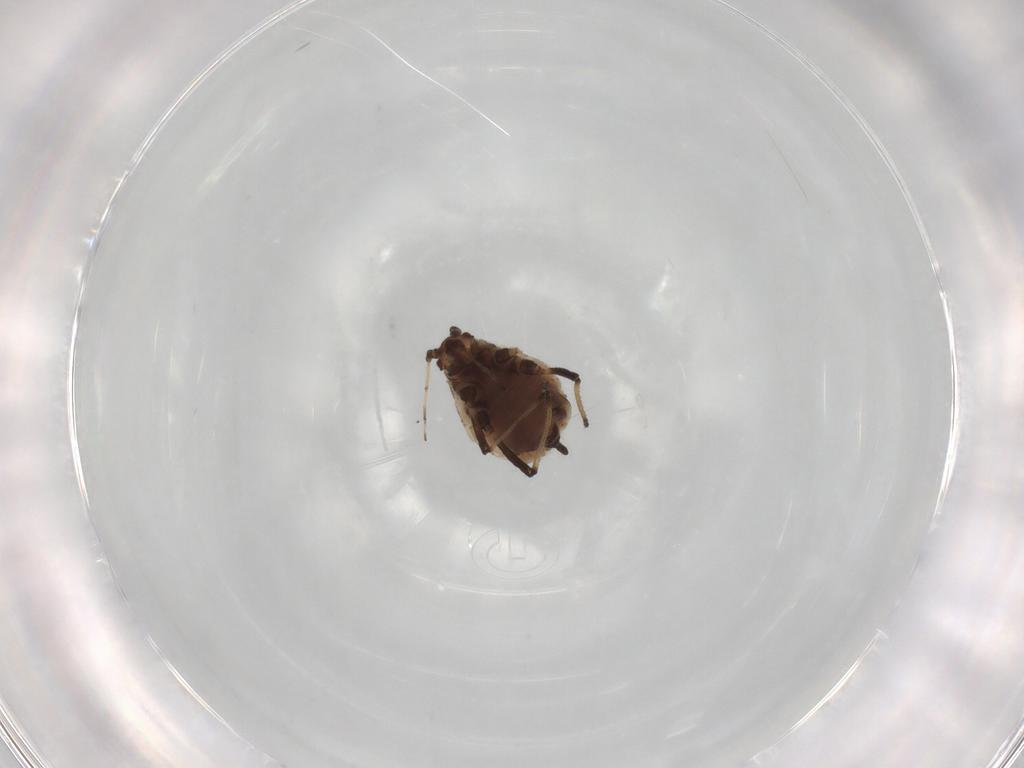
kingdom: Animalia
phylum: Arthropoda
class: Insecta
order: Hemiptera
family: Aphididae
